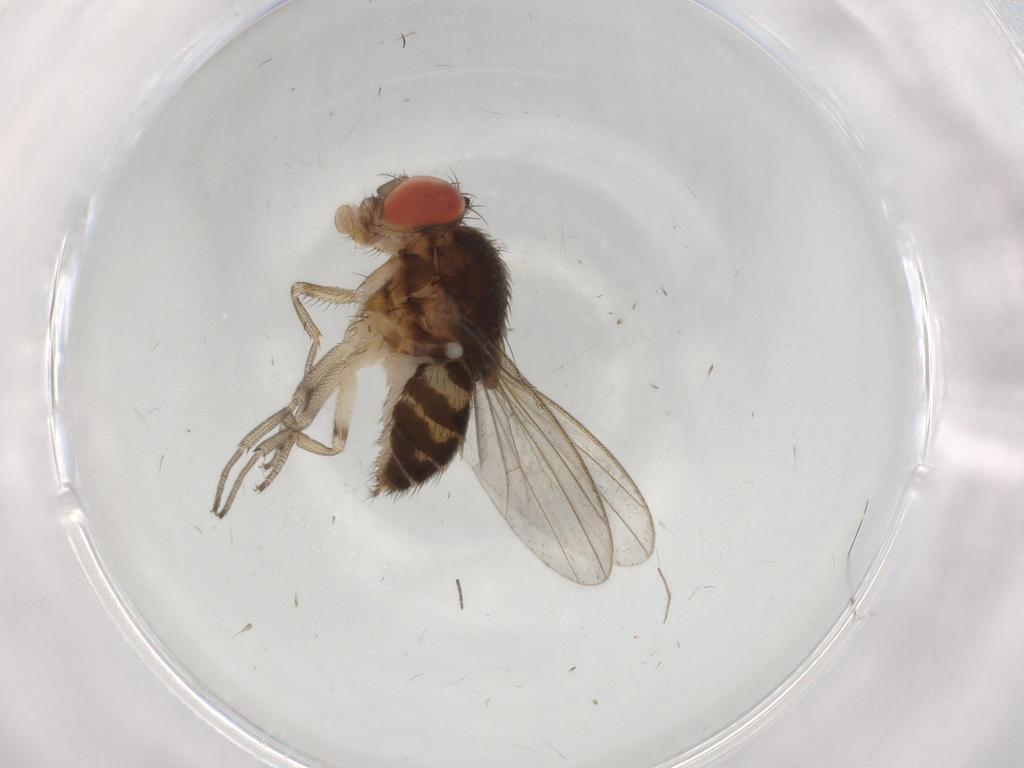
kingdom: Animalia
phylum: Arthropoda
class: Insecta
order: Diptera
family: Drosophilidae
